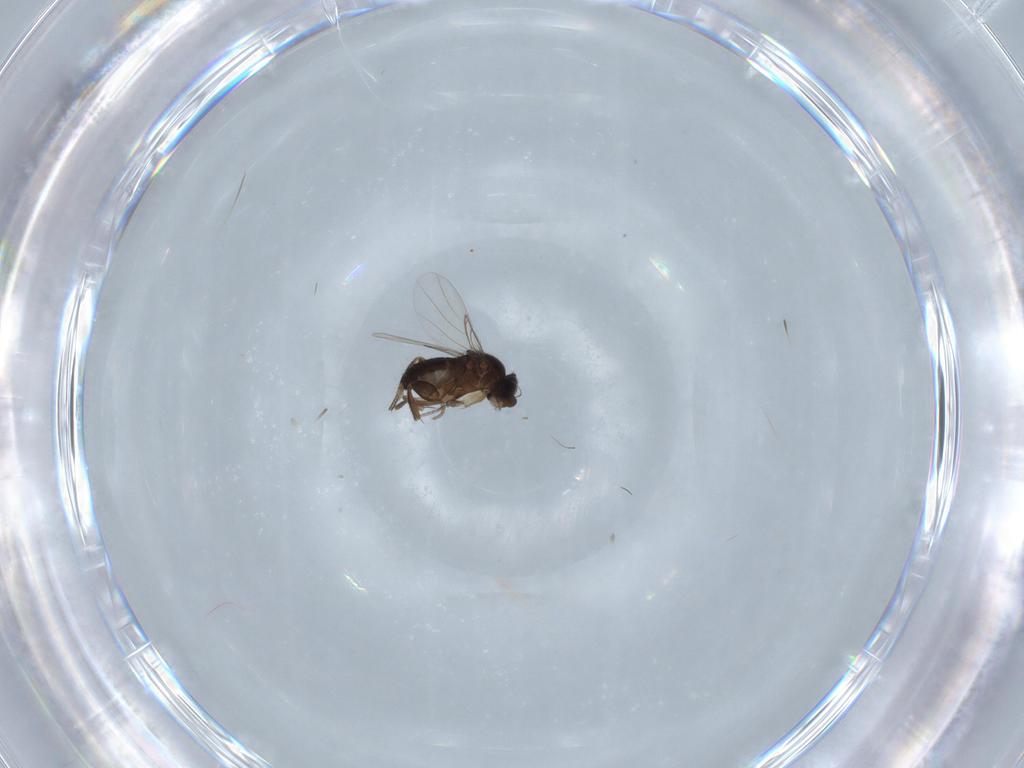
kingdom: Animalia
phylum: Arthropoda
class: Insecta
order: Diptera
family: Phoridae
